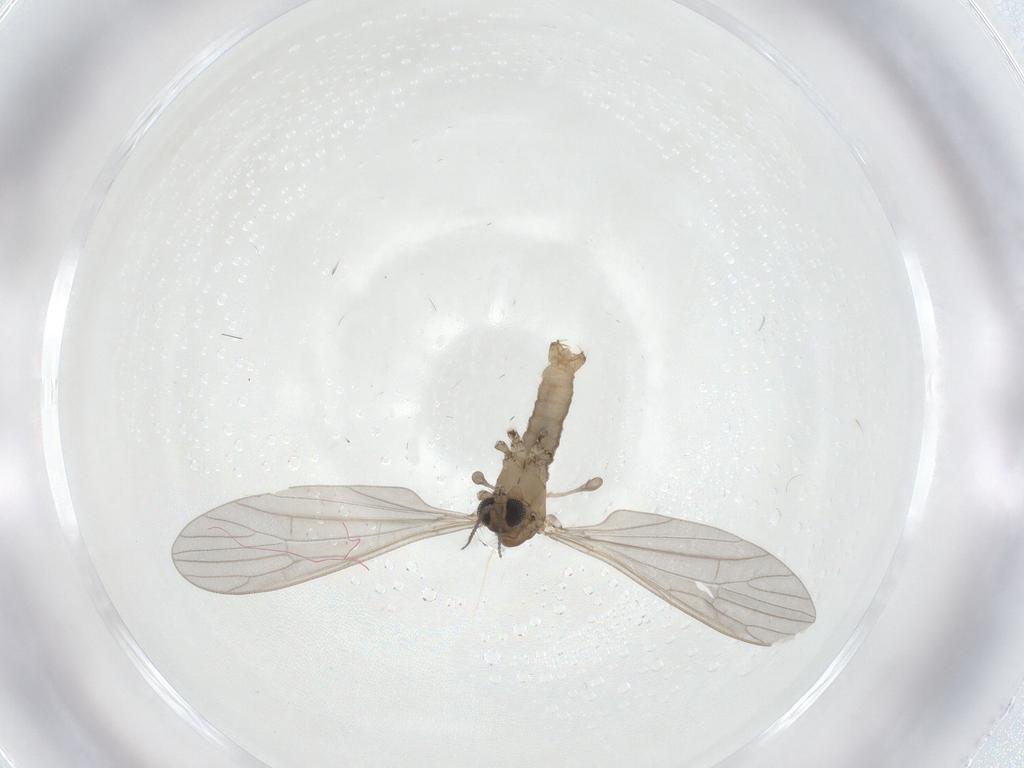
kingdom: Animalia
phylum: Arthropoda
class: Insecta
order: Diptera
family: Limoniidae
